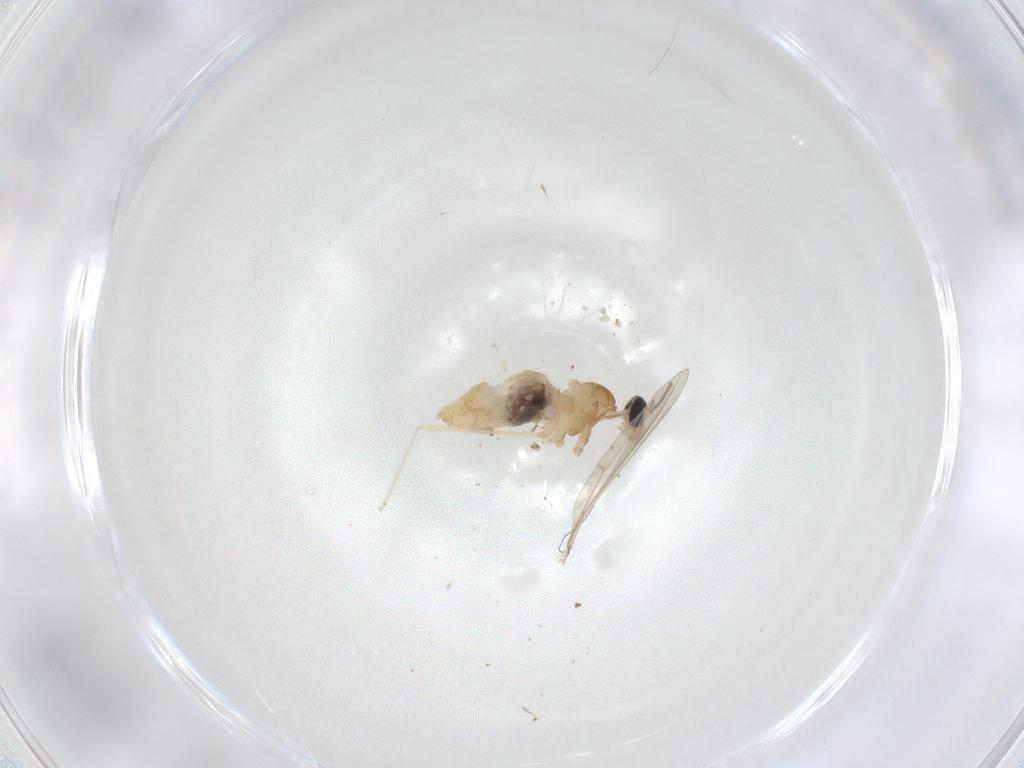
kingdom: Animalia
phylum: Arthropoda
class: Insecta
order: Diptera
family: Cecidomyiidae
